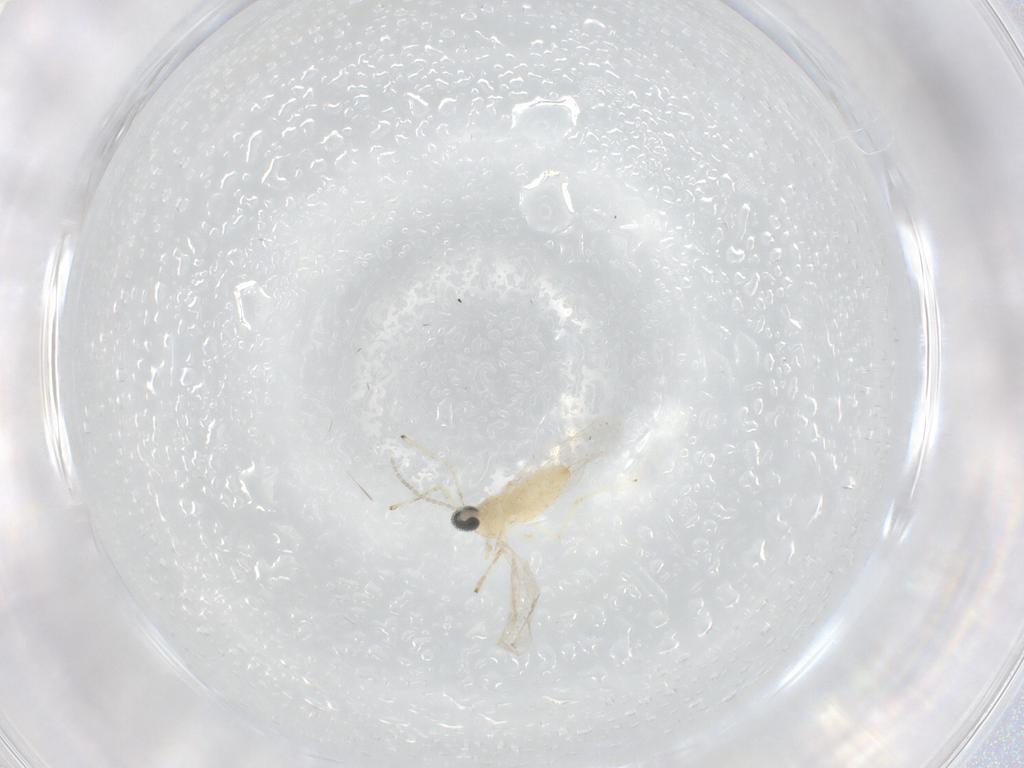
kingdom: Animalia
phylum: Arthropoda
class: Insecta
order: Diptera
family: Cecidomyiidae
